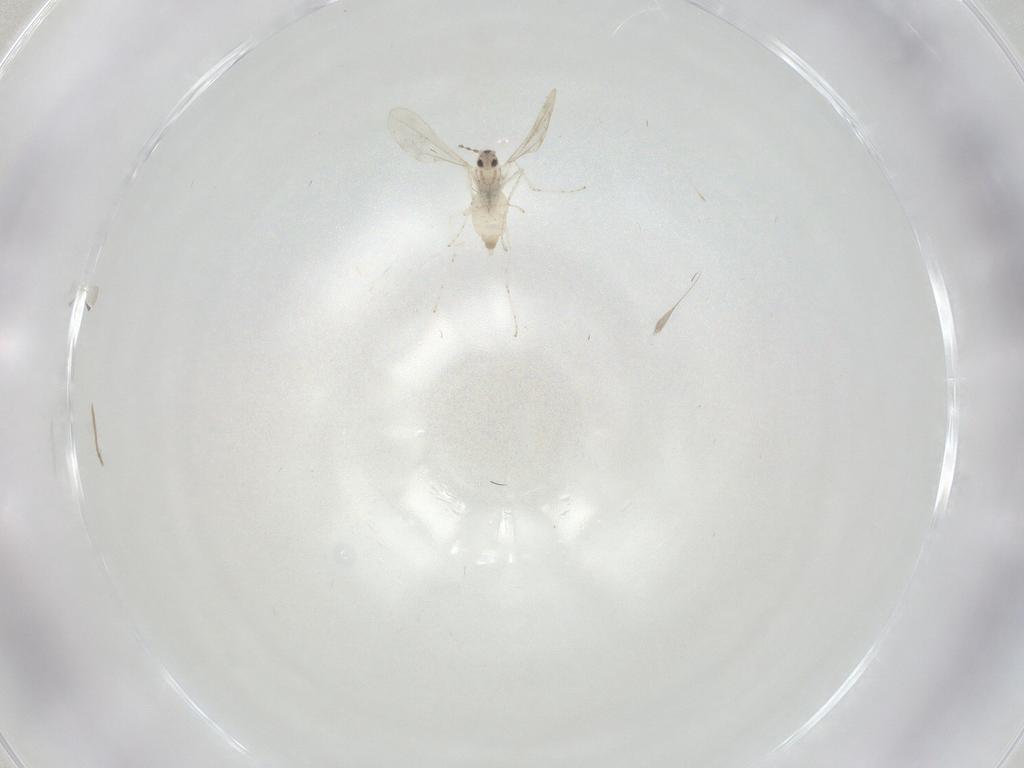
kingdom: Animalia
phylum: Arthropoda
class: Insecta
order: Diptera
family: Cecidomyiidae
